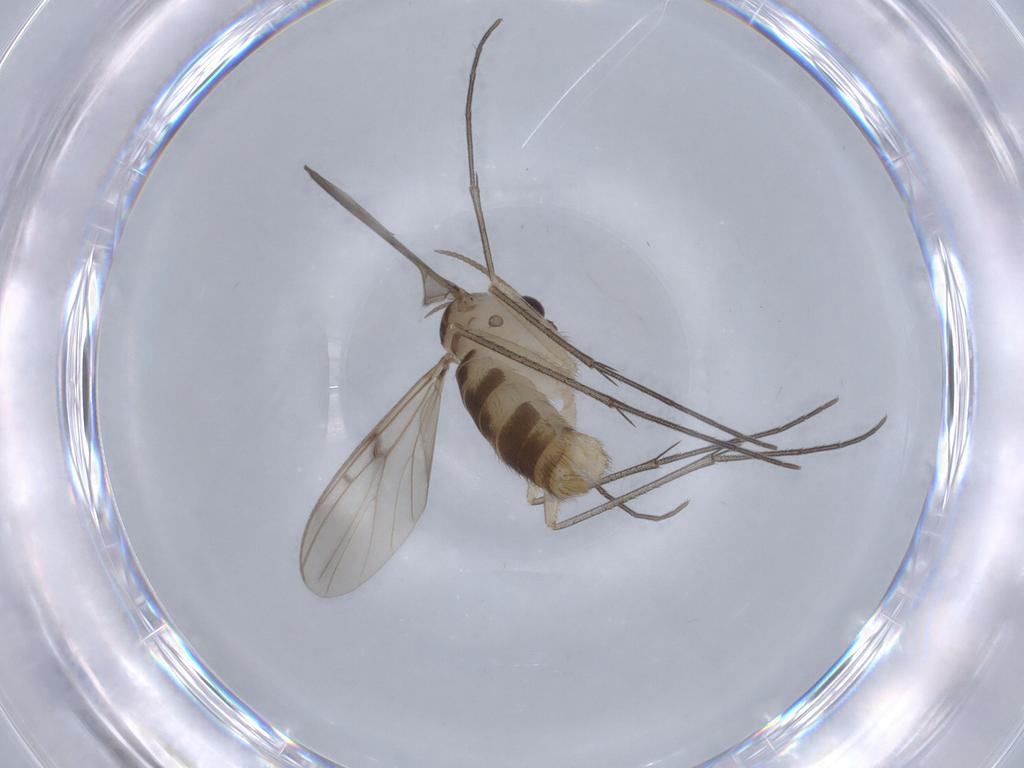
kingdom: Animalia
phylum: Arthropoda
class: Insecta
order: Diptera
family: Mycetophilidae
